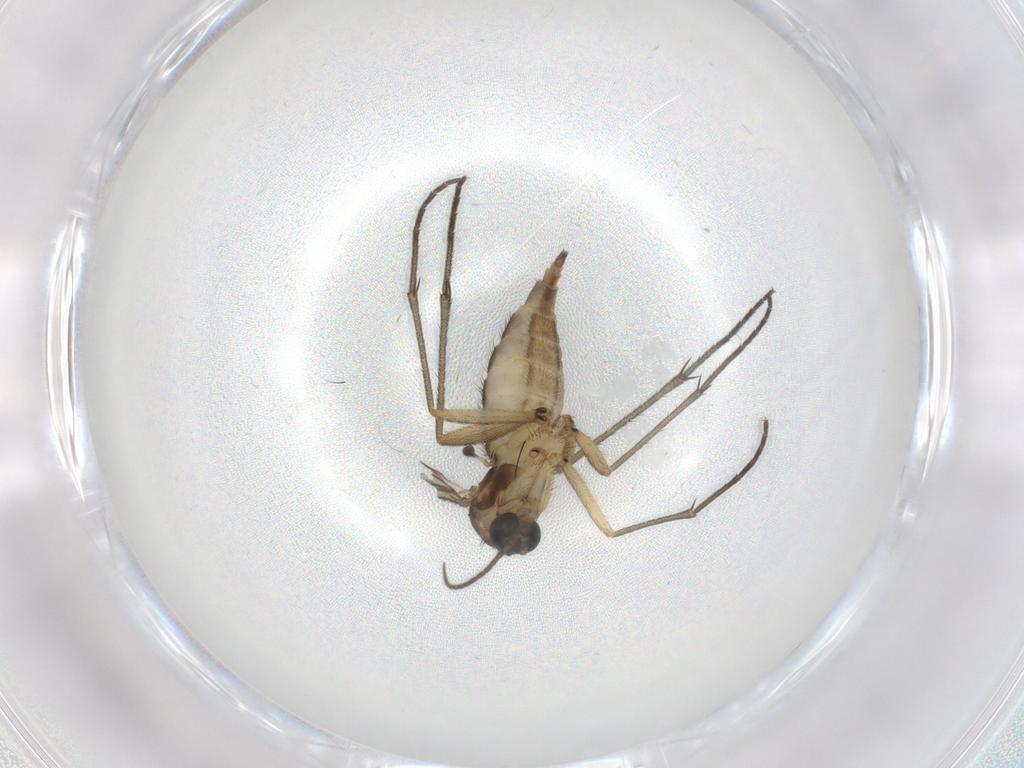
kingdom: Animalia
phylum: Arthropoda
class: Insecta
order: Diptera
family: Sciaridae
